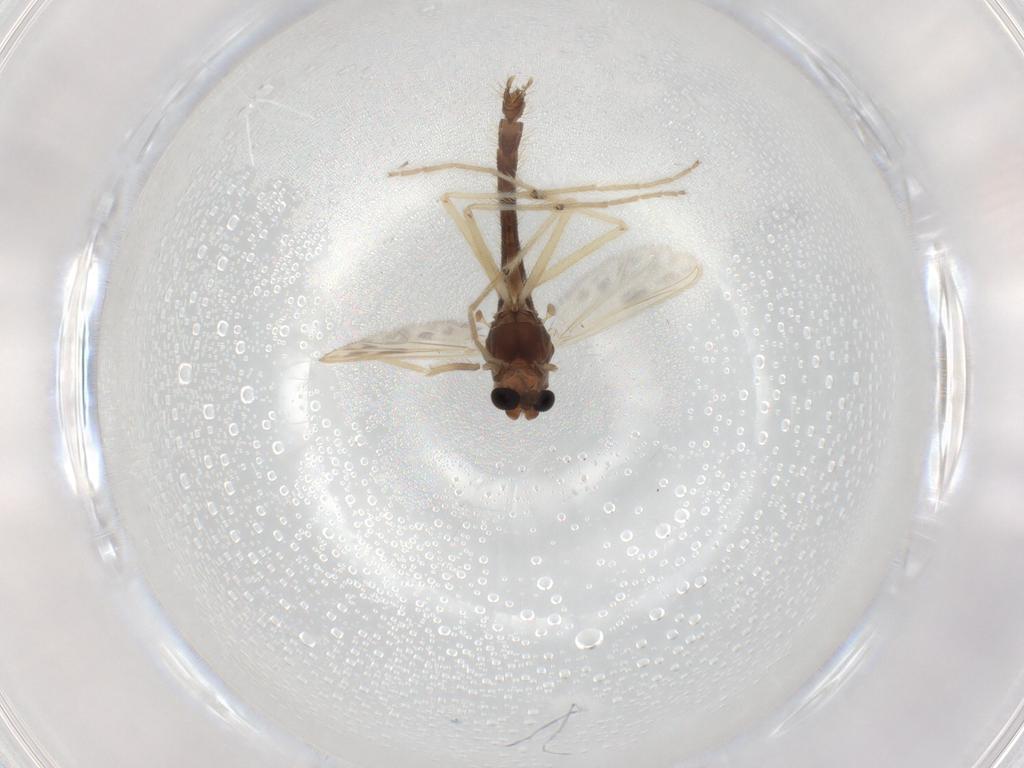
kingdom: Animalia
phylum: Arthropoda
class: Insecta
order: Diptera
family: Chironomidae
